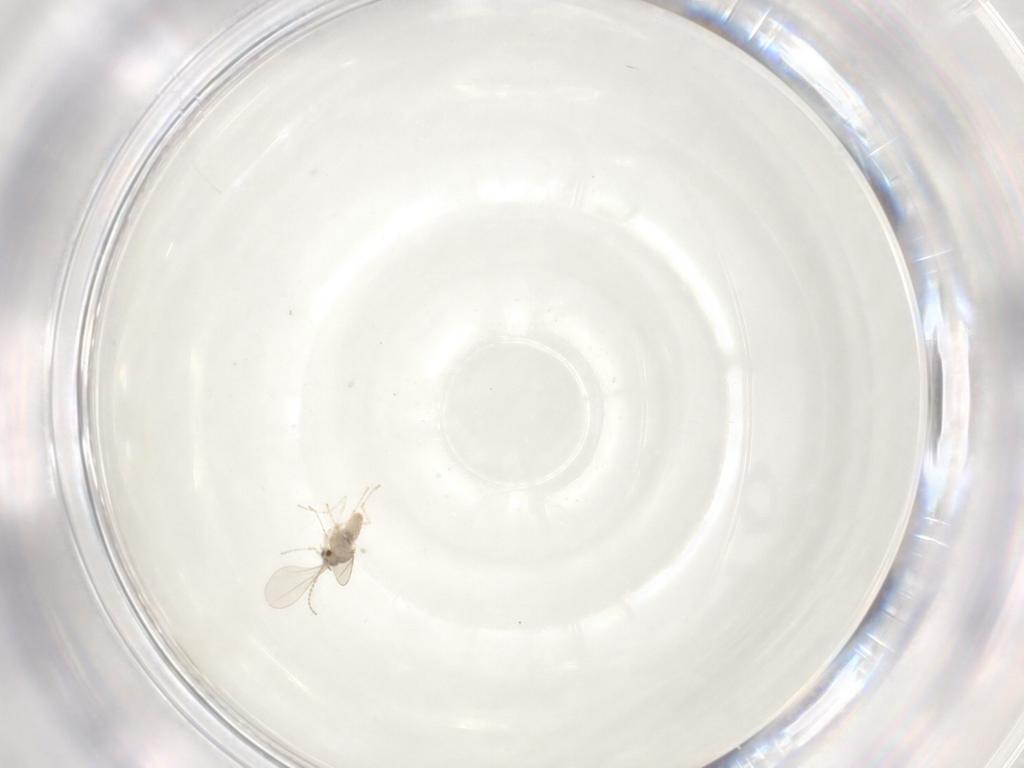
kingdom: Animalia
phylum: Arthropoda
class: Insecta
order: Diptera
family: Cecidomyiidae
